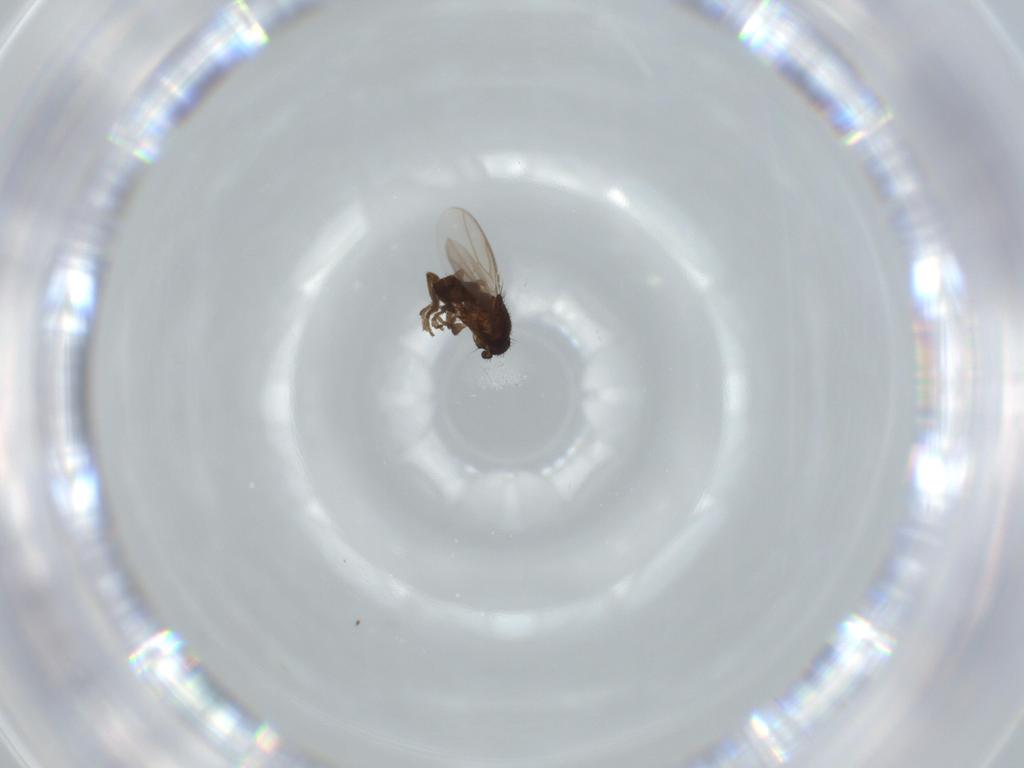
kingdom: Animalia
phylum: Arthropoda
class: Insecta
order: Diptera
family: Sphaeroceridae
